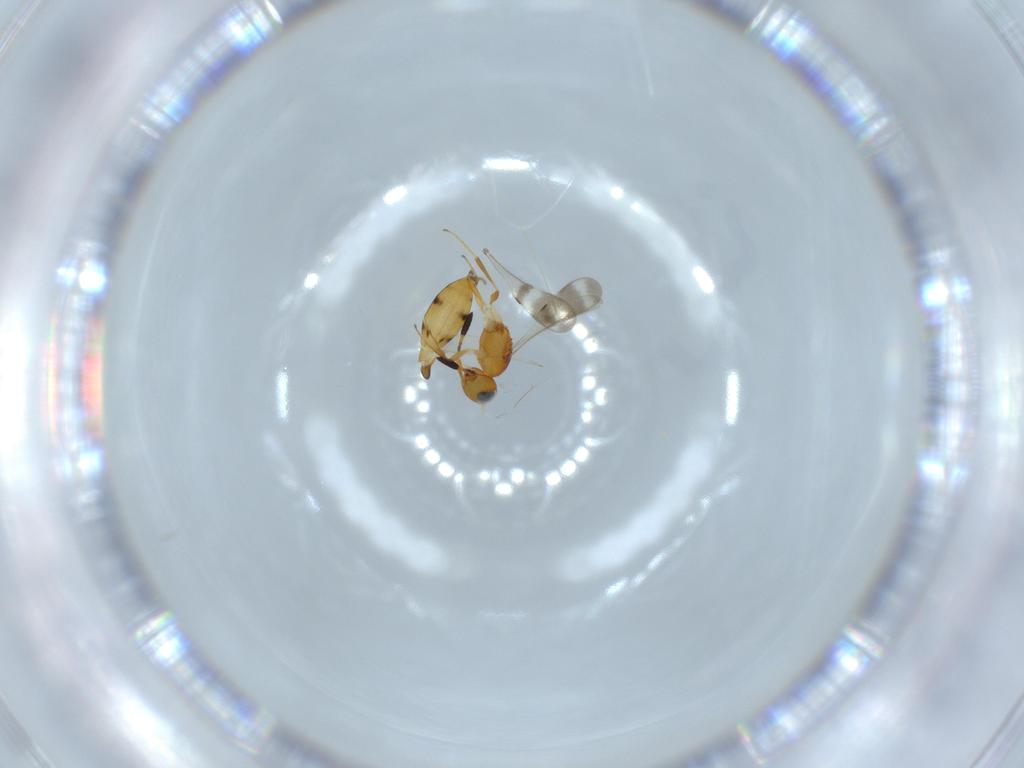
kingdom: Animalia
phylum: Arthropoda
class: Insecta
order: Hymenoptera
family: Scelionidae
